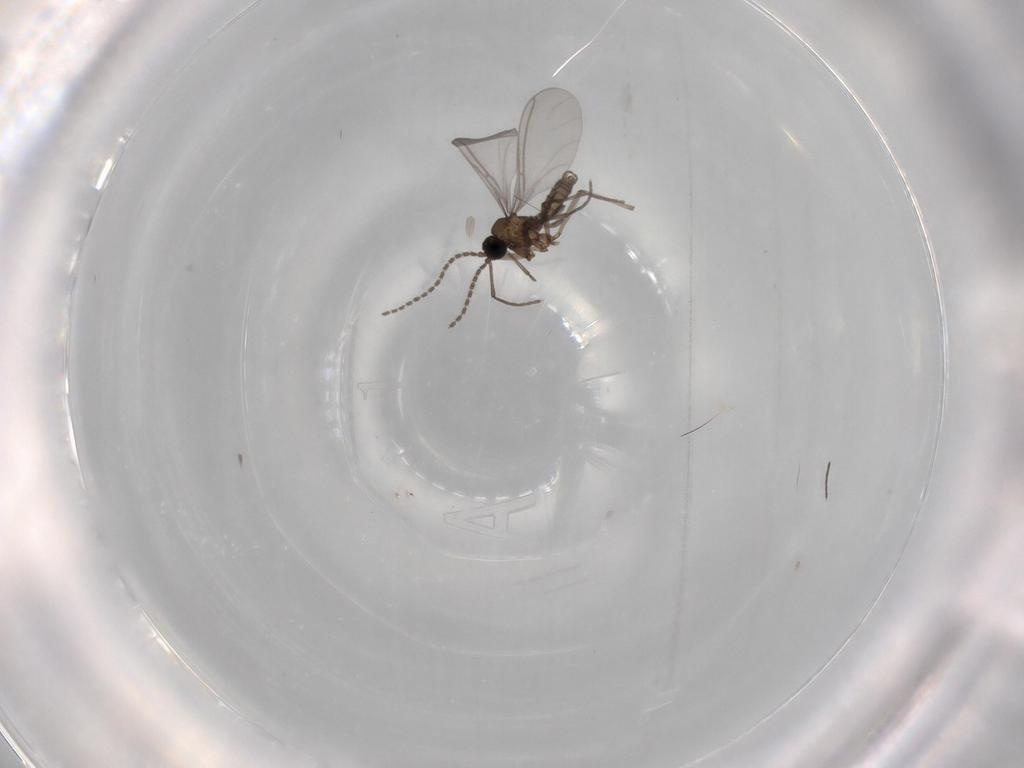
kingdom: Animalia
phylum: Arthropoda
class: Insecta
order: Diptera
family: Sciaridae
